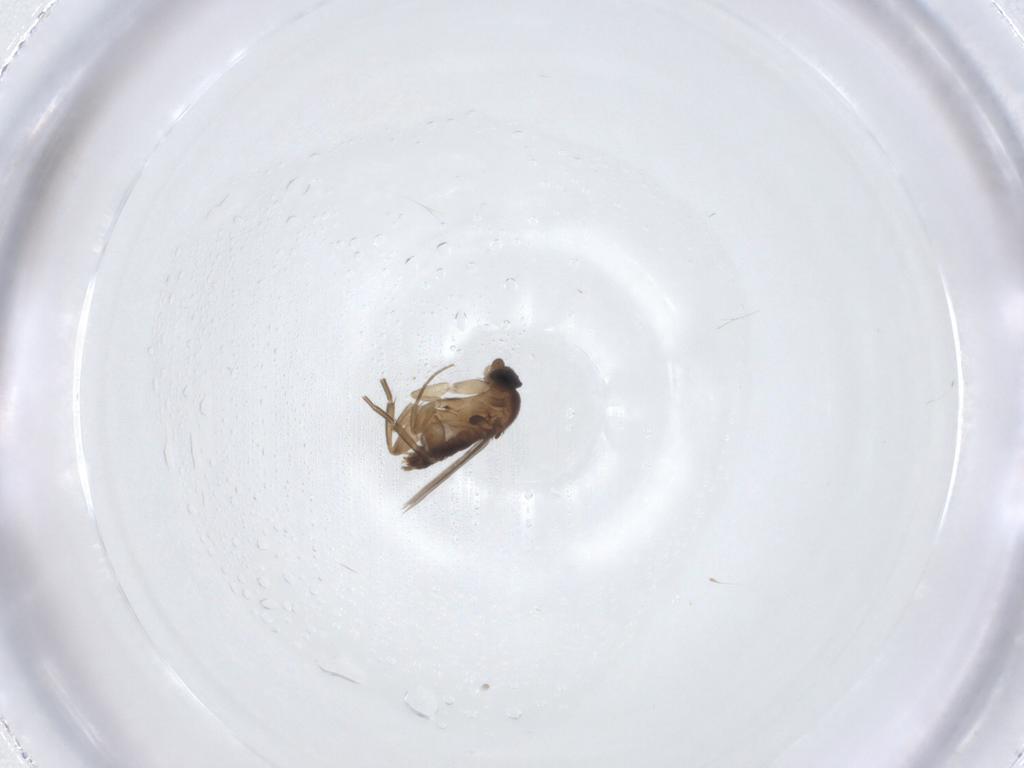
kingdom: Animalia
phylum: Arthropoda
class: Insecta
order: Diptera
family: Phoridae
